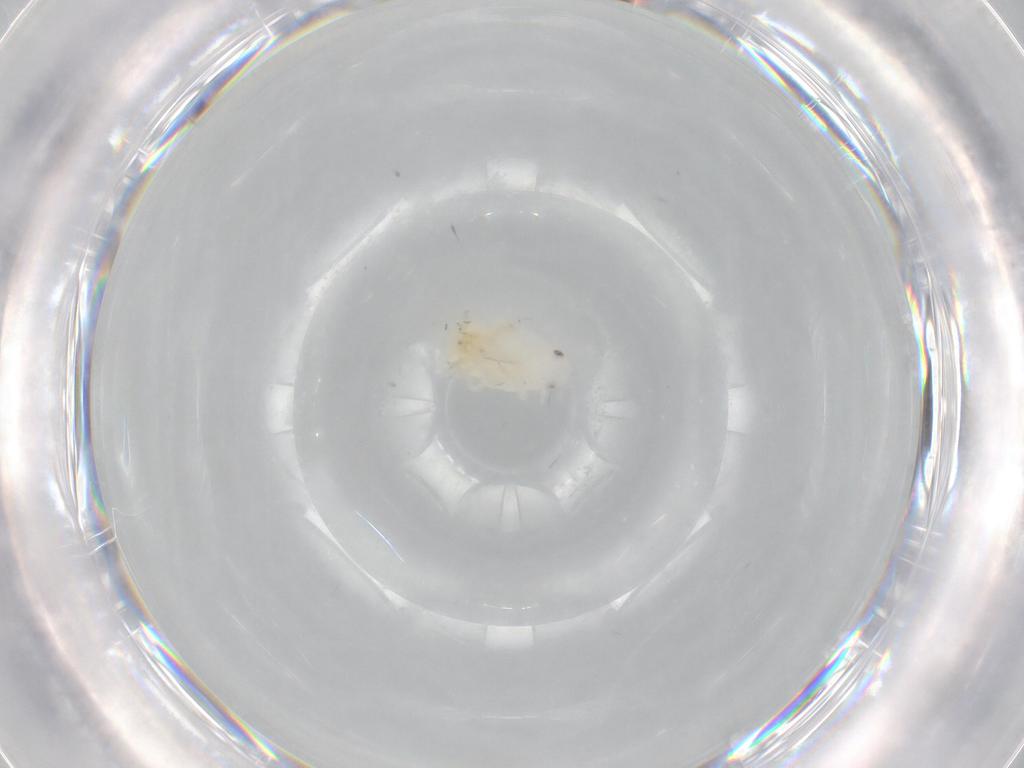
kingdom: Animalia
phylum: Arthropoda
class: Insecta
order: Hemiptera
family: Flatidae
